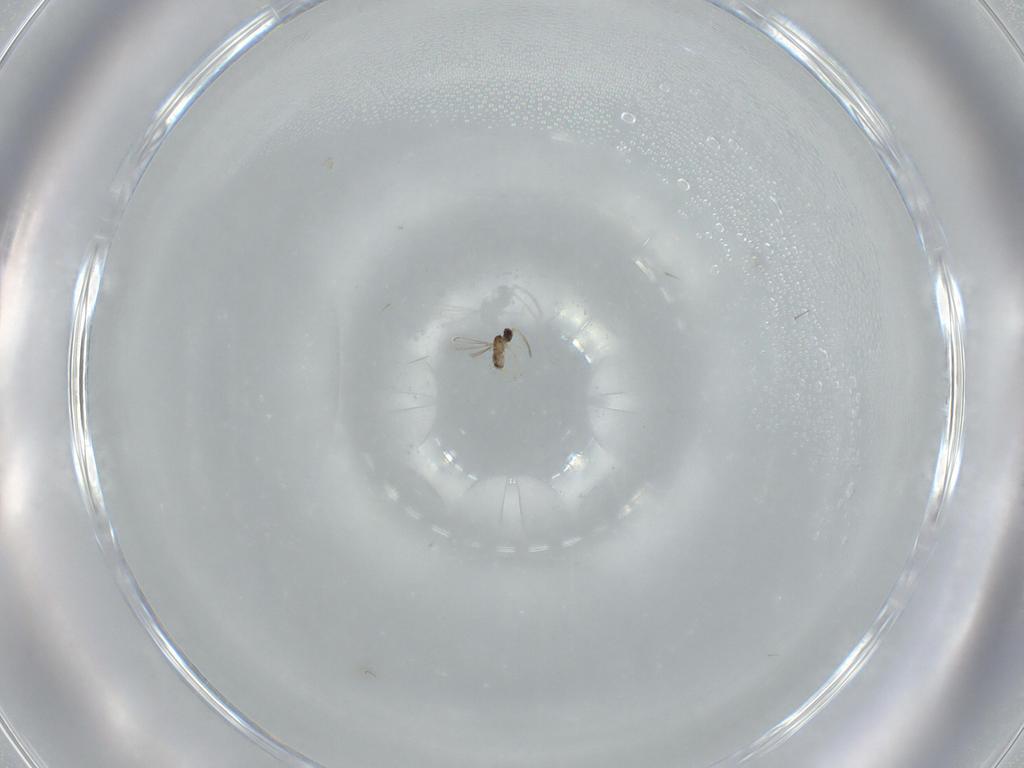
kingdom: Animalia
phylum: Arthropoda
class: Insecta
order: Hymenoptera
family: Mymaridae
